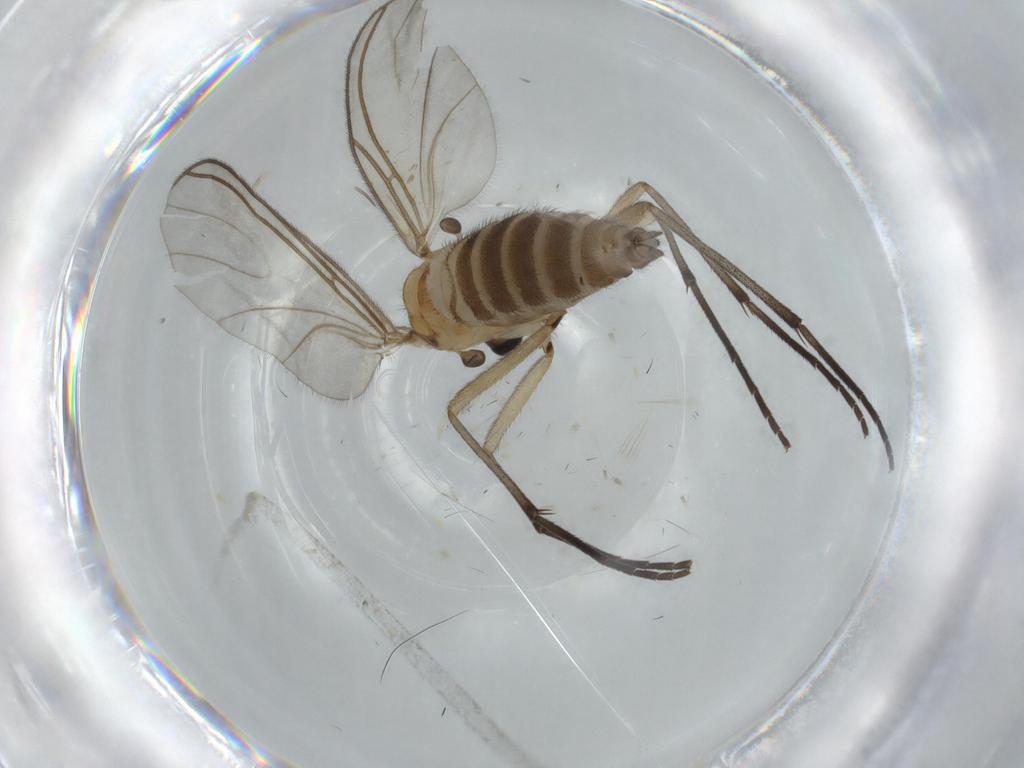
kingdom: Animalia
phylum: Arthropoda
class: Insecta
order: Diptera
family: Sciaridae
